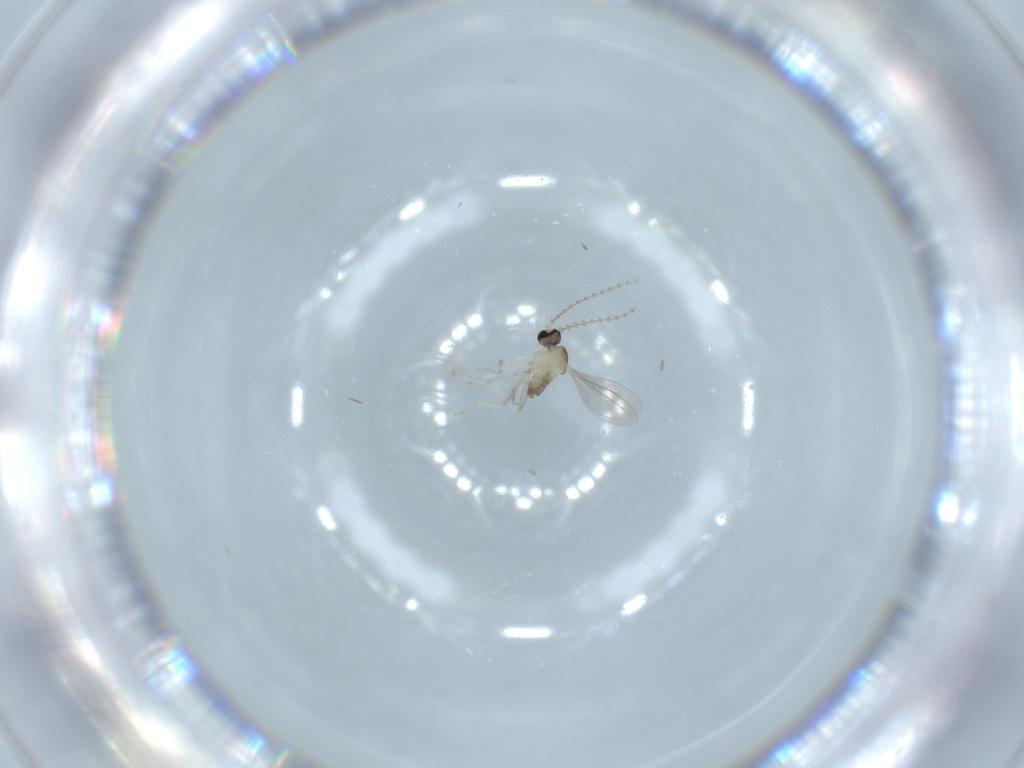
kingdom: Animalia
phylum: Arthropoda
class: Insecta
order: Diptera
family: Cecidomyiidae
